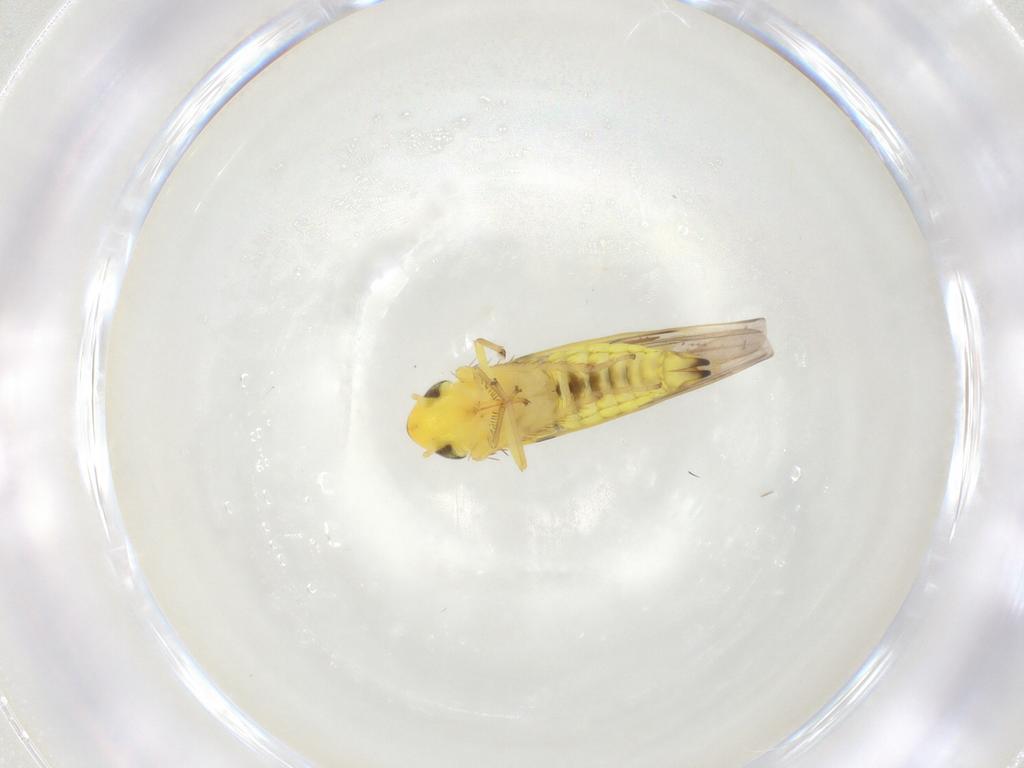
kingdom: Animalia
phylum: Arthropoda
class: Insecta
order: Hemiptera
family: Cicadellidae
